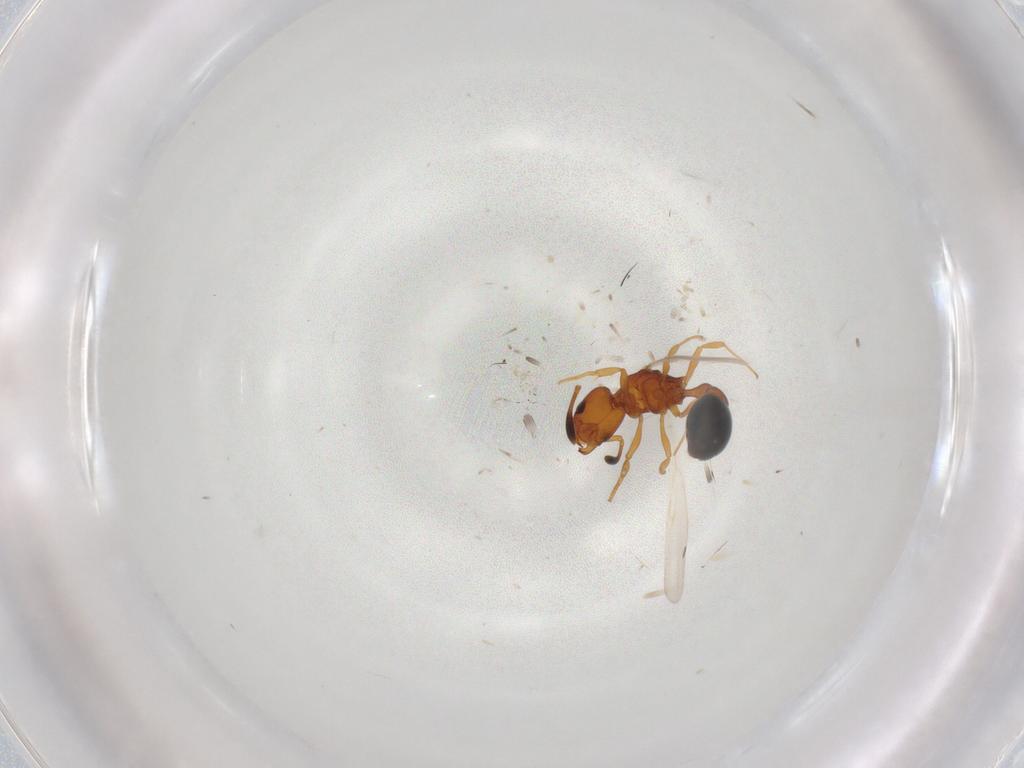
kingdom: Animalia
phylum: Arthropoda
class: Insecta
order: Hymenoptera
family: Formicidae
